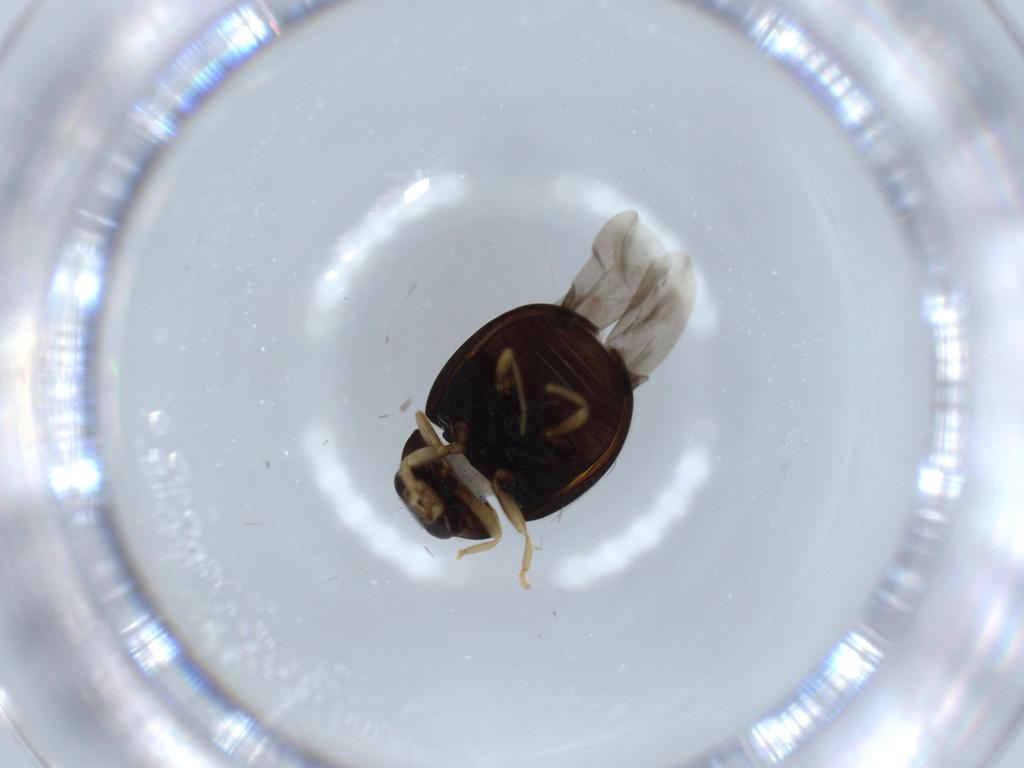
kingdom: Animalia
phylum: Arthropoda
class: Insecta
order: Coleoptera
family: Coccinellidae
